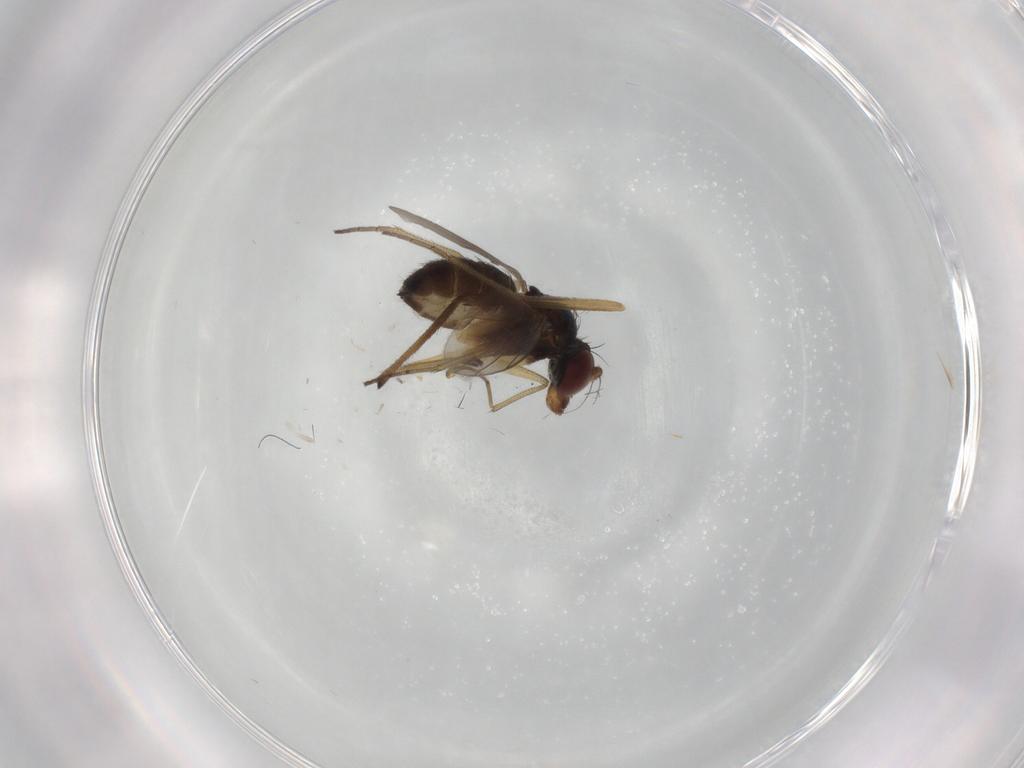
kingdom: Animalia
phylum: Arthropoda
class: Insecta
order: Diptera
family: Limoniidae
